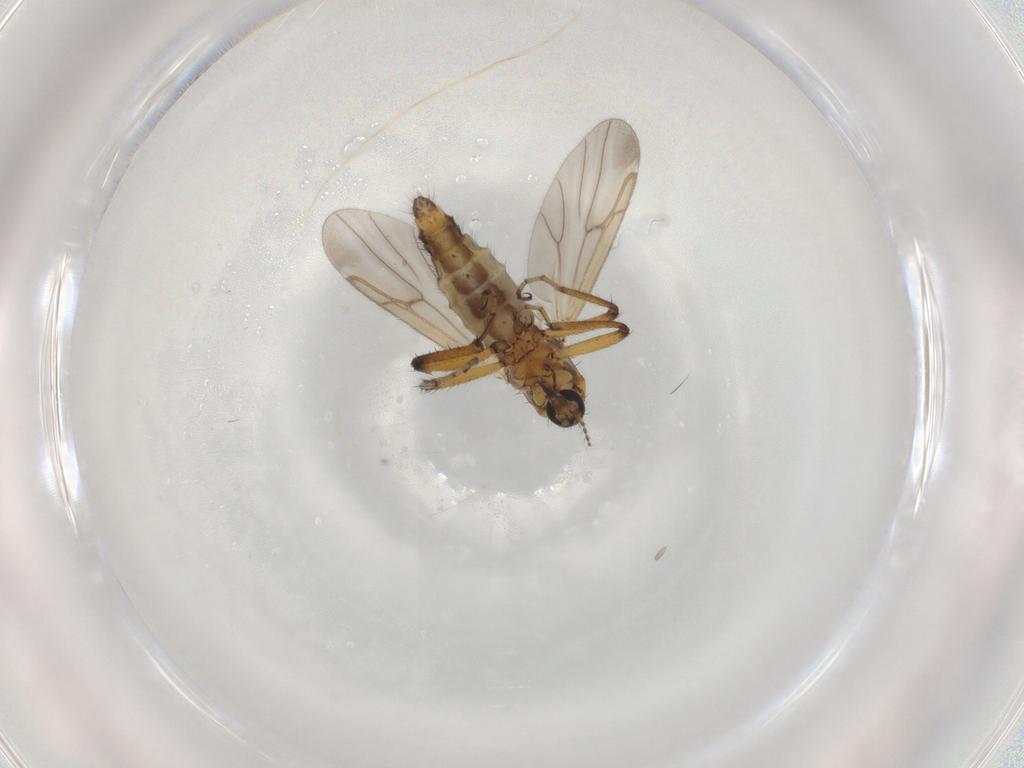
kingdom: Animalia
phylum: Arthropoda
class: Insecta
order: Diptera
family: Ceratopogonidae
